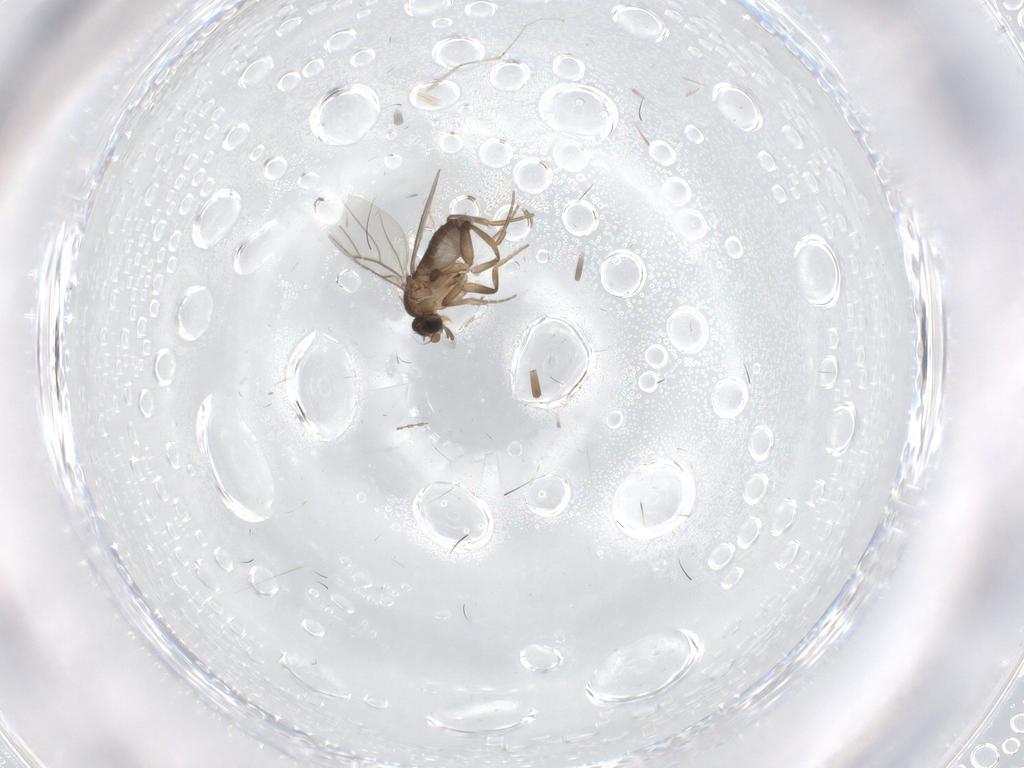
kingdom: Animalia
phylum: Arthropoda
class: Insecta
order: Diptera
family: Phoridae
